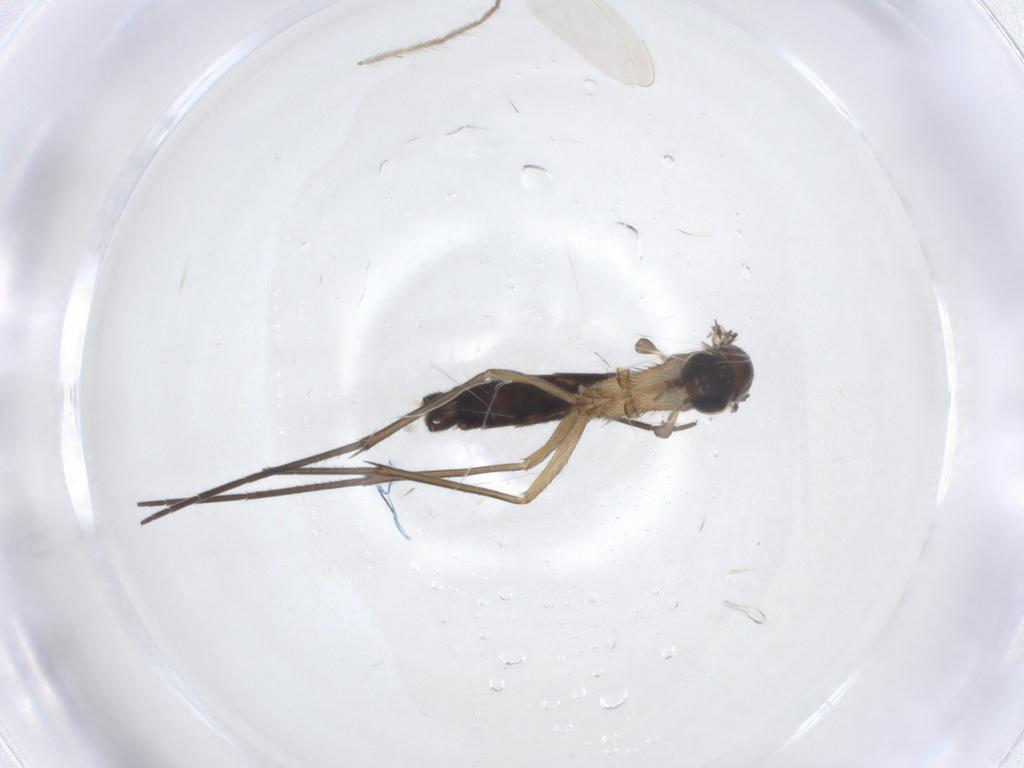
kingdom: Animalia
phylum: Arthropoda
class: Insecta
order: Diptera
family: Keroplatidae
